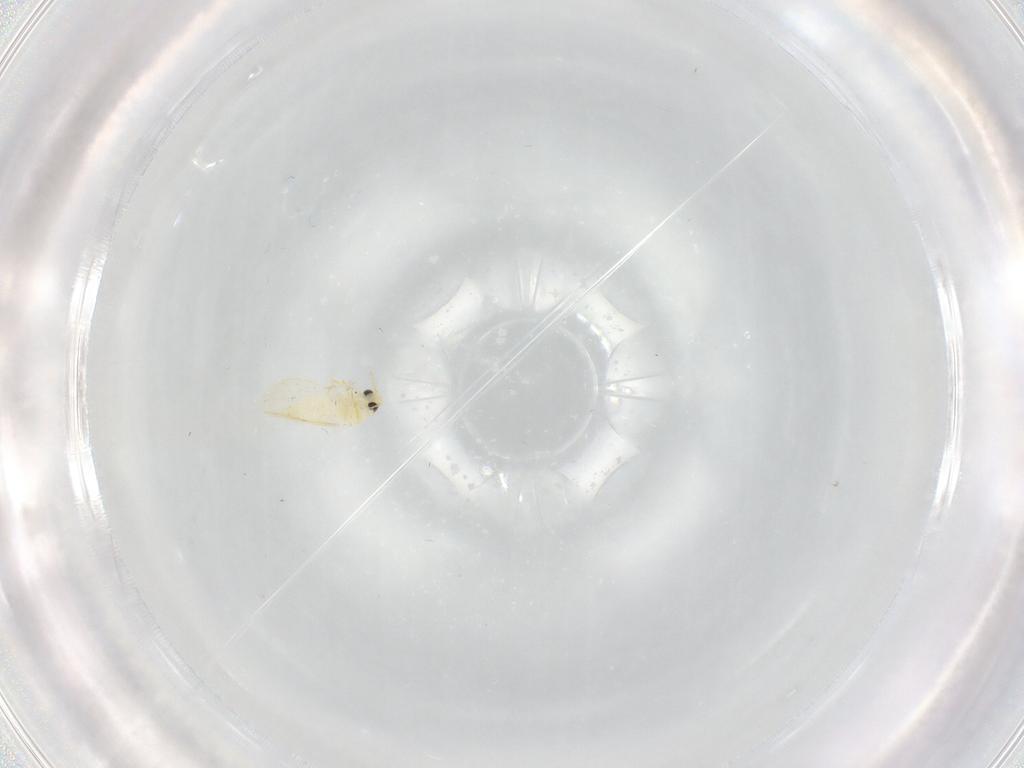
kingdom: Animalia
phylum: Arthropoda
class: Insecta
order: Hemiptera
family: Aleyrodidae
